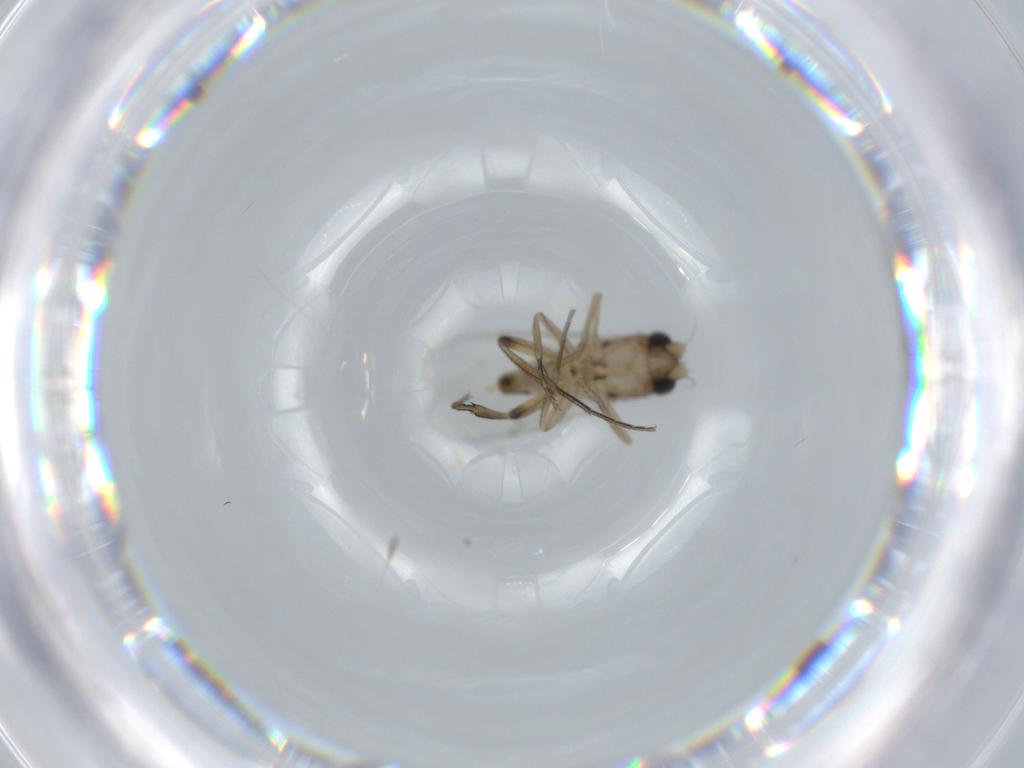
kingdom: Animalia
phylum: Arthropoda
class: Insecta
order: Diptera
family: Phoridae
